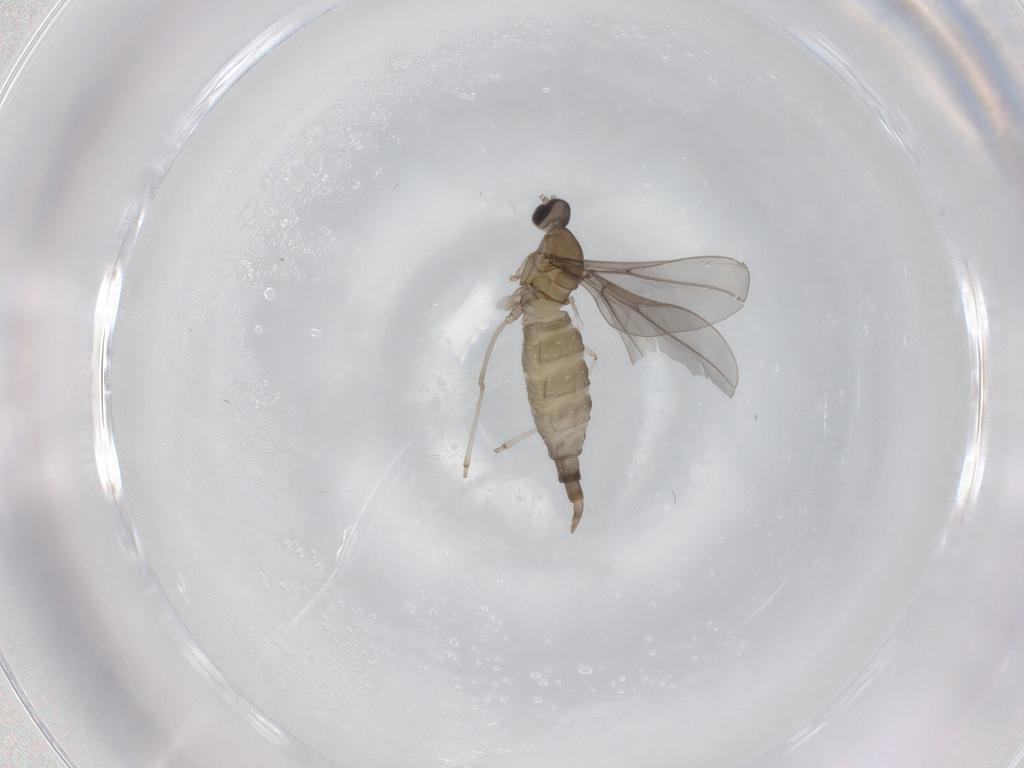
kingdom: Animalia
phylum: Arthropoda
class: Insecta
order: Diptera
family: Cecidomyiidae
